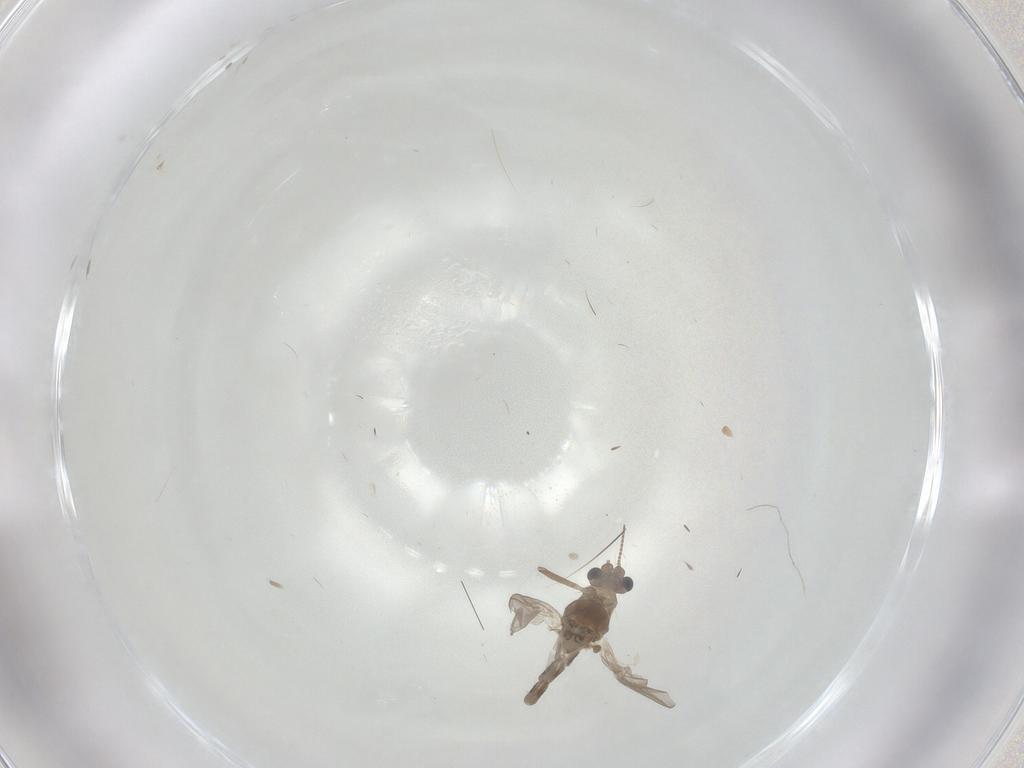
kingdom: Animalia
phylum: Arthropoda
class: Insecta
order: Diptera
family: Chironomidae
